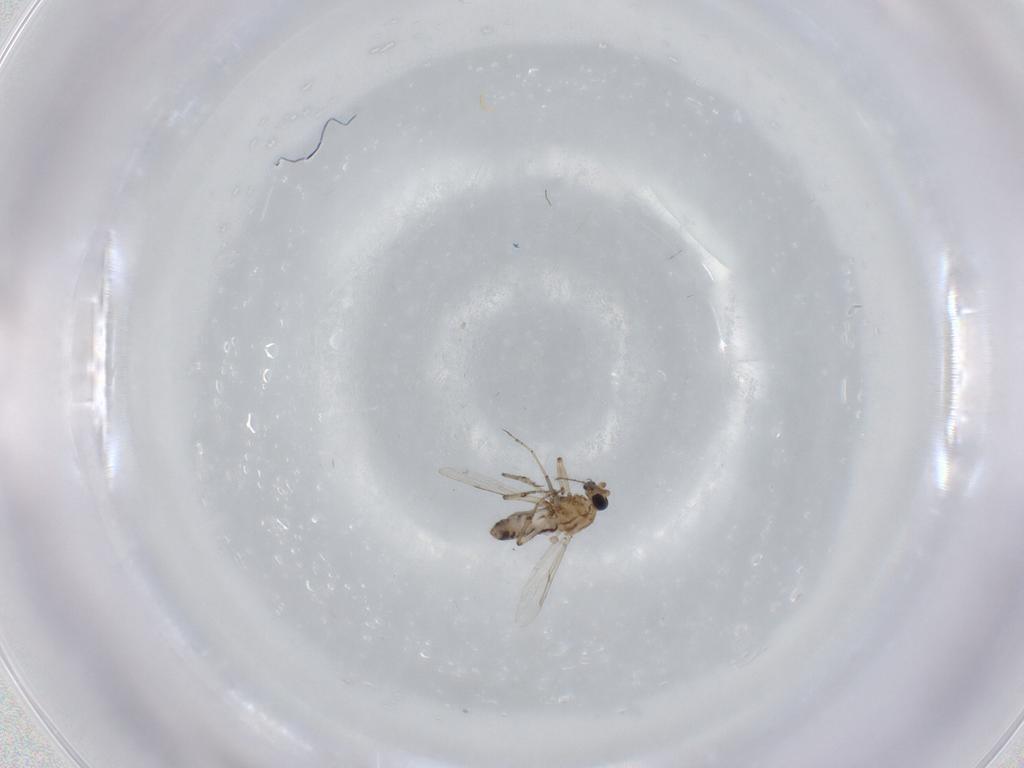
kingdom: Animalia
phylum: Arthropoda
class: Insecta
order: Diptera
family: Ceratopogonidae
